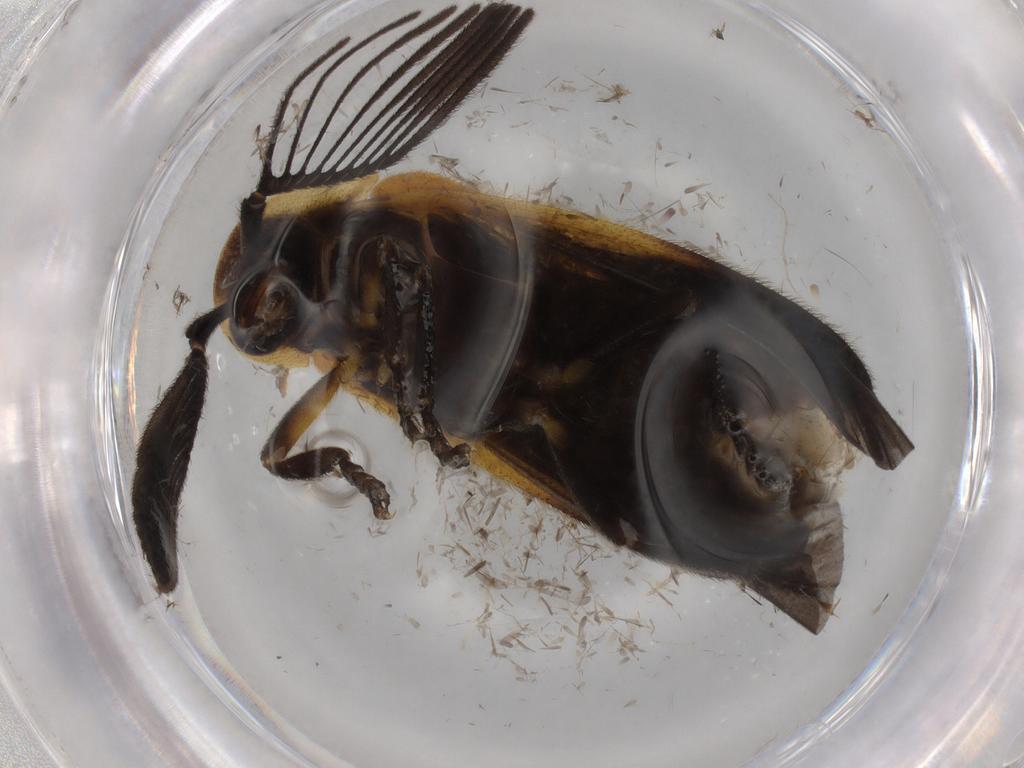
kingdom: Animalia
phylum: Arthropoda
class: Insecta
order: Coleoptera
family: Lampyridae
